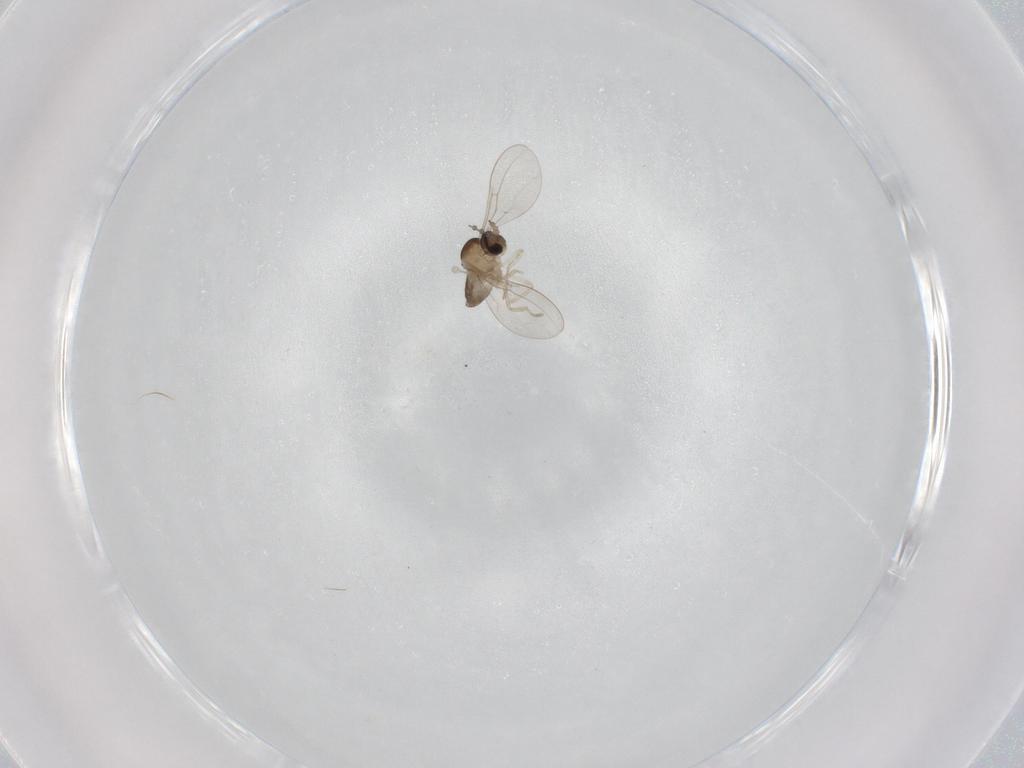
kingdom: Animalia
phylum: Arthropoda
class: Insecta
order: Diptera
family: Cecidomyiidae
